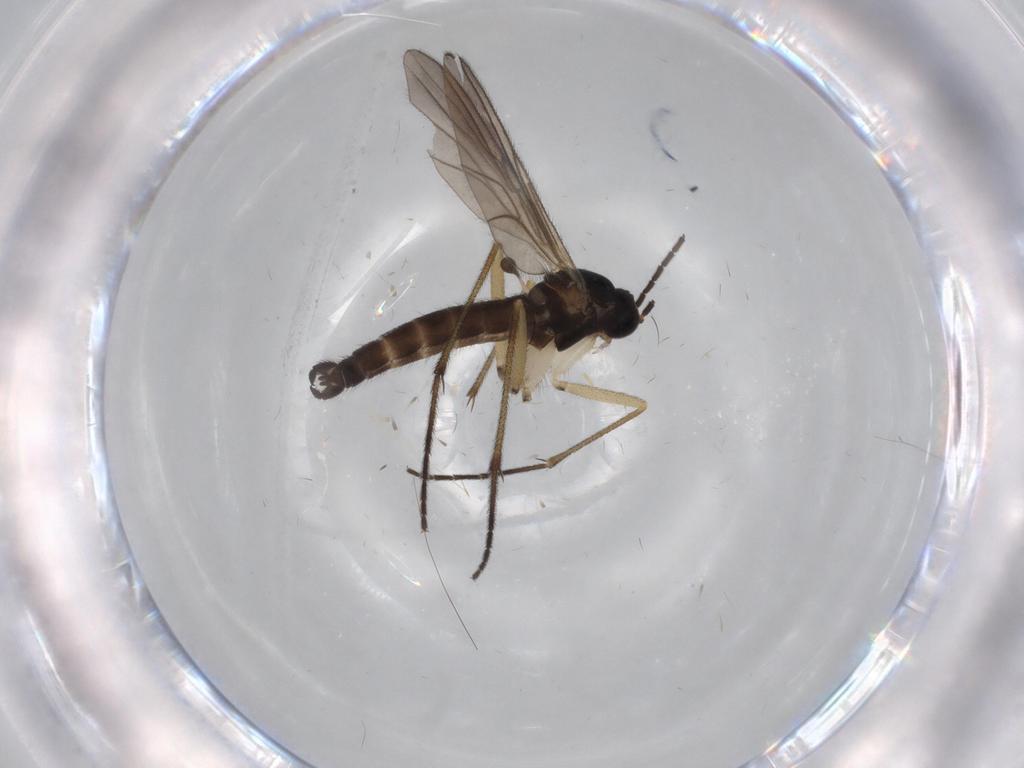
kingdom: Animalia
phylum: Arthropoda
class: Insecta
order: Diptera
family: Sciaridae
